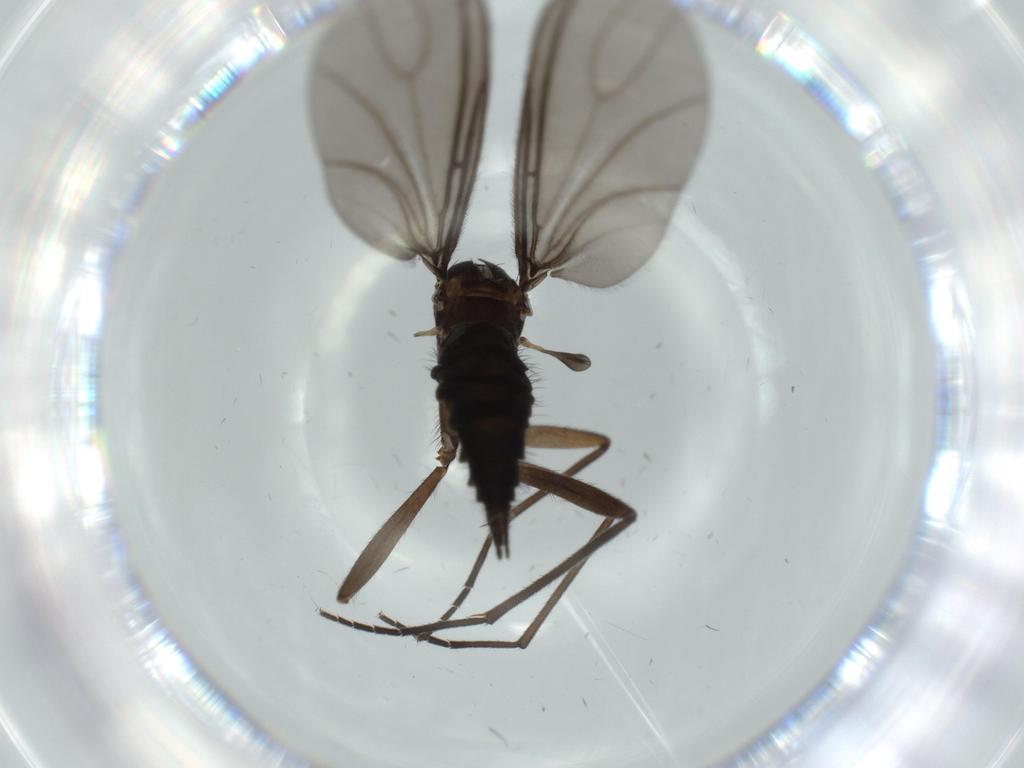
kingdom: Animalia
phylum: Arthropoda
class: Insecta
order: Diptera
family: Sciaridae
